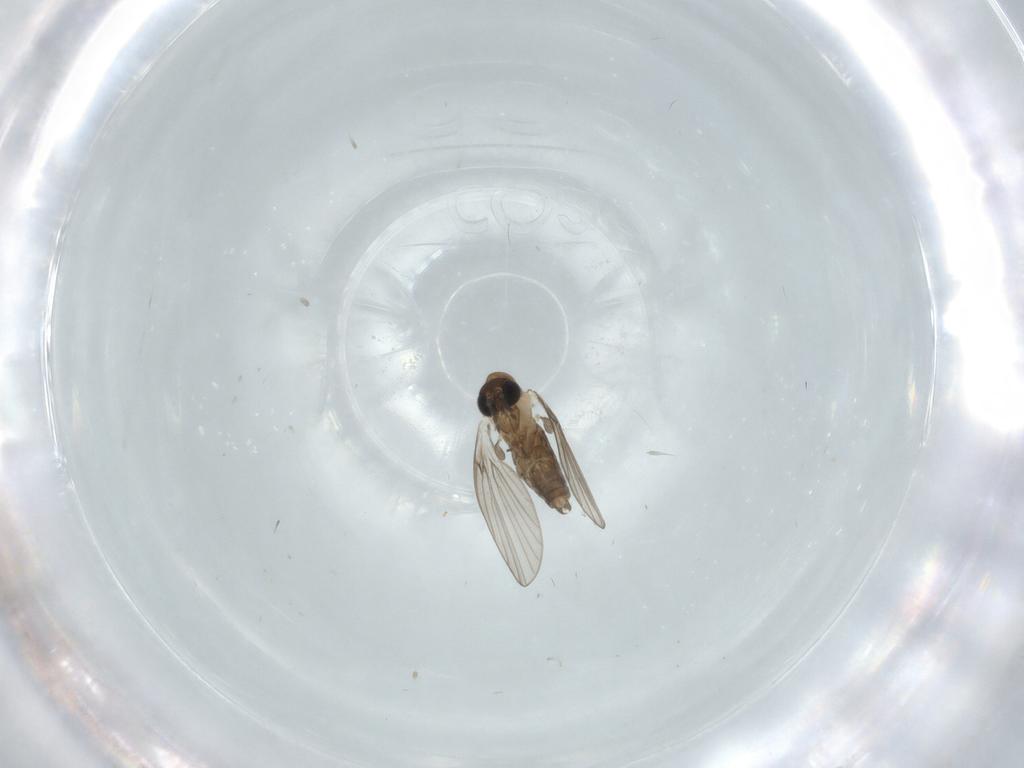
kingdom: Animalia
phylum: Arthropoda
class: Insecta
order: Diptera
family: Psychodidae
